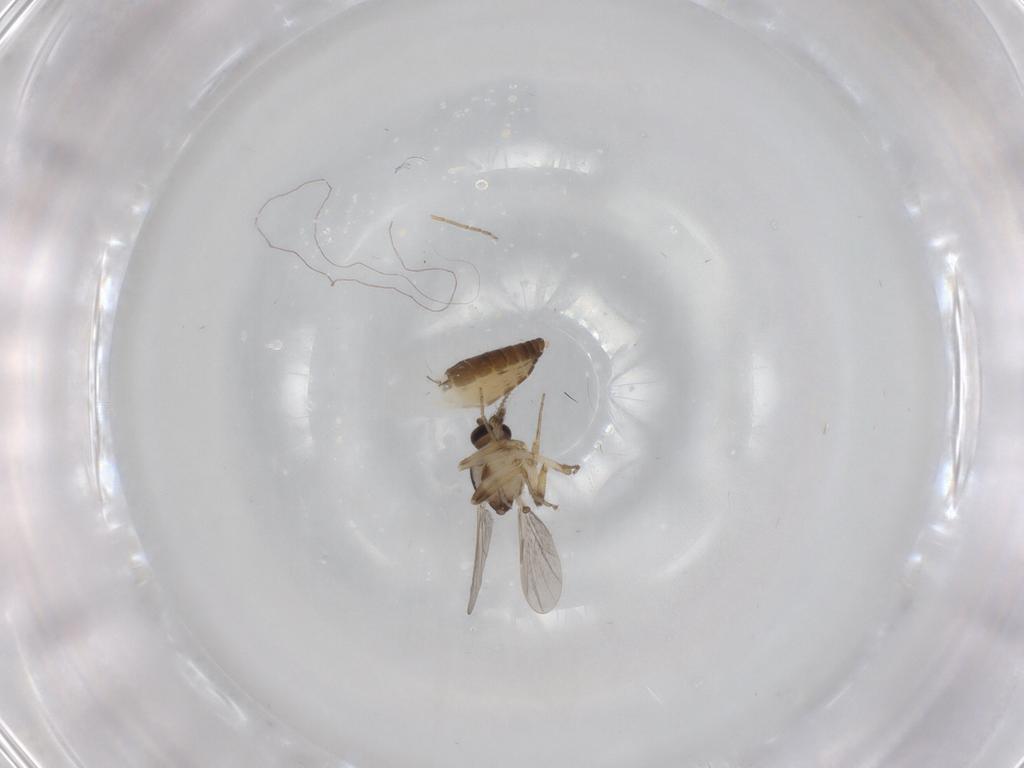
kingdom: Animalia
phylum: Arthropoda
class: Insecta
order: Diptera
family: Ceratopogonidae
